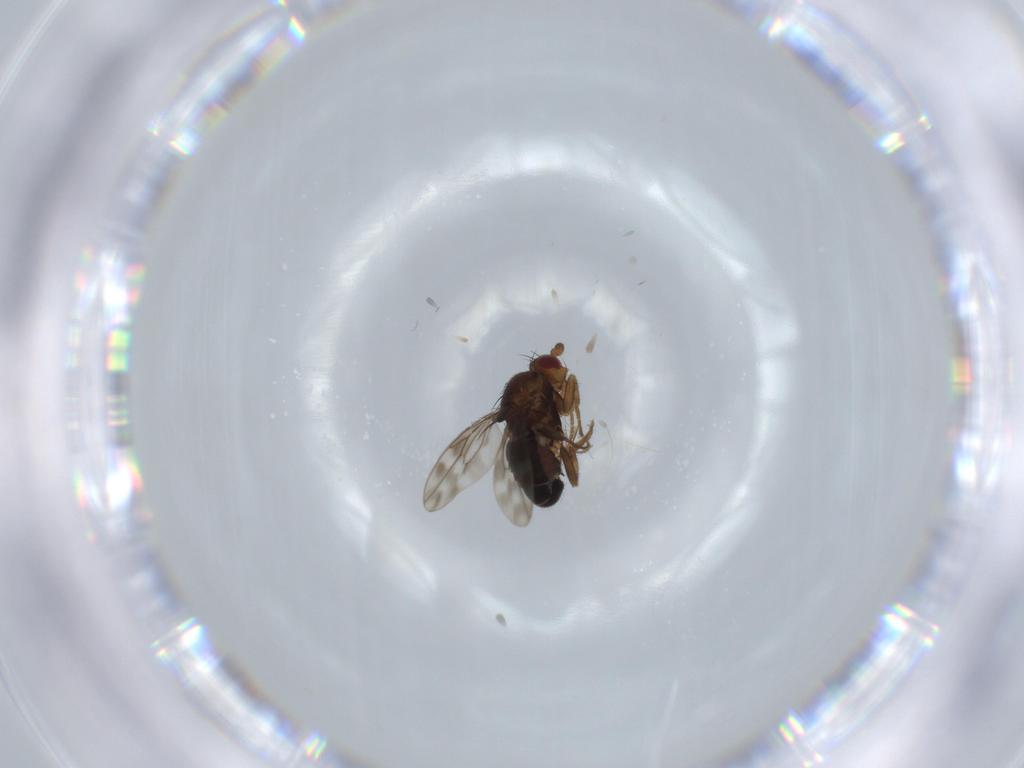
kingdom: Animalia
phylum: Arthropoda
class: Insecta
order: Diptera
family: Sphaeroceridae
